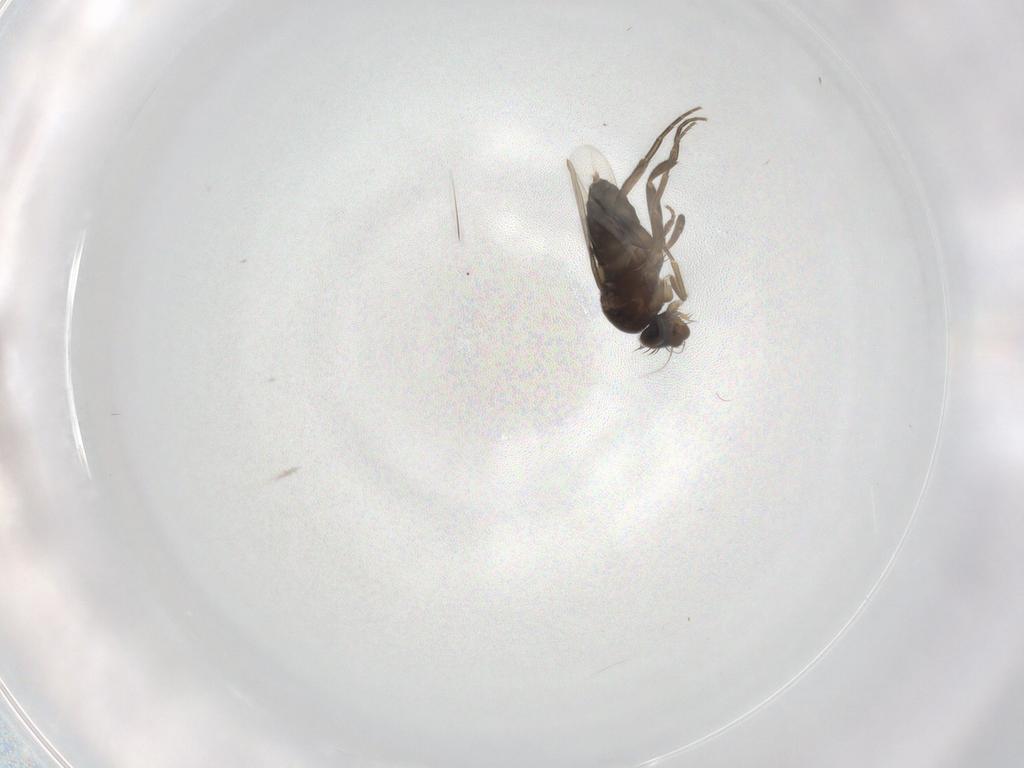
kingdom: Animalia
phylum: Arthropoda
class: Insecta
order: Diptera
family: Phoridae
